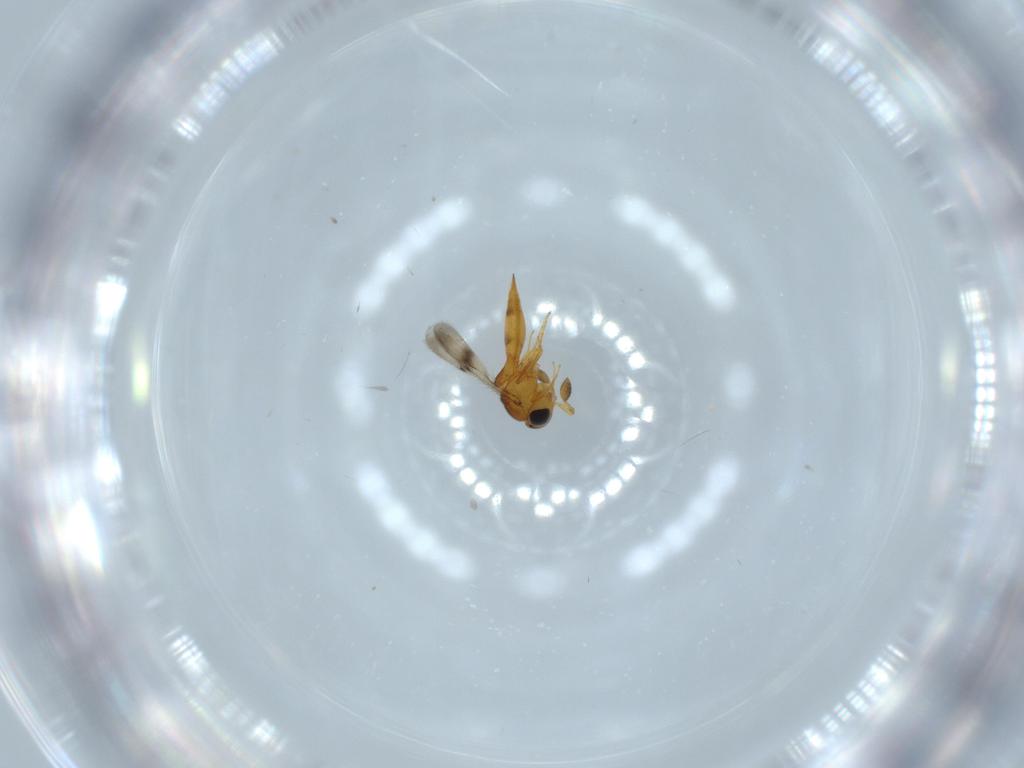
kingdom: Animalia
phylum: Arthropoda
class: Insecta
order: Hymenoptera
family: Scelionidae
